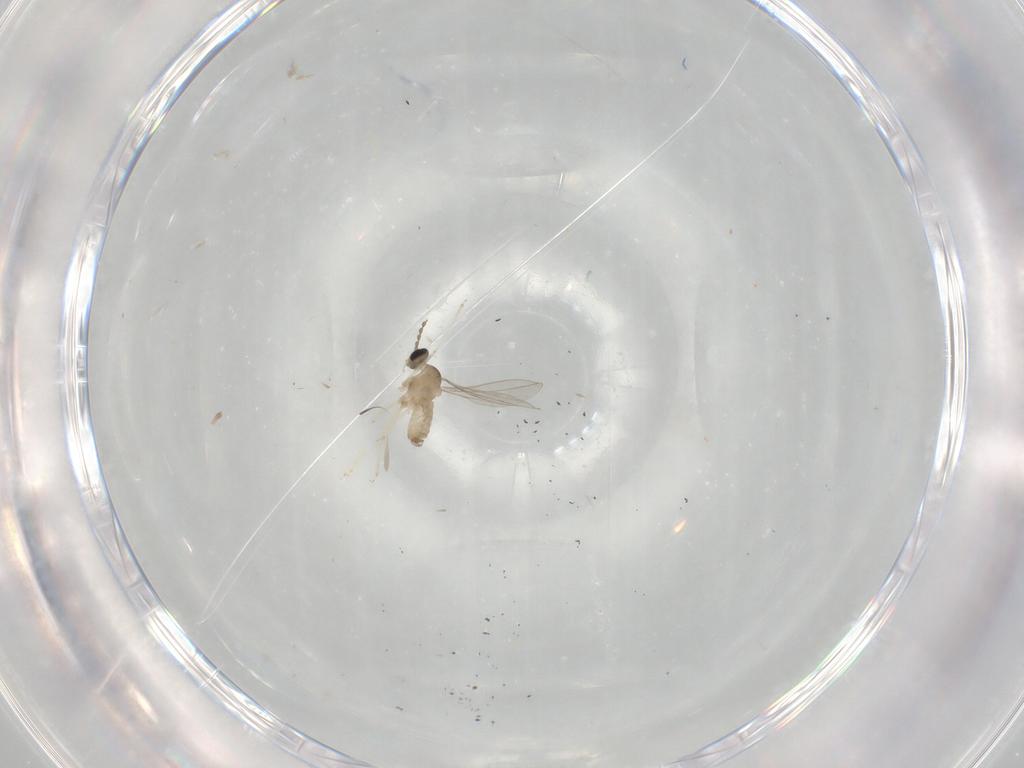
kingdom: Animalia
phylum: Arthropoda
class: Insecta
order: Diptera
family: Cecidomyiidae
